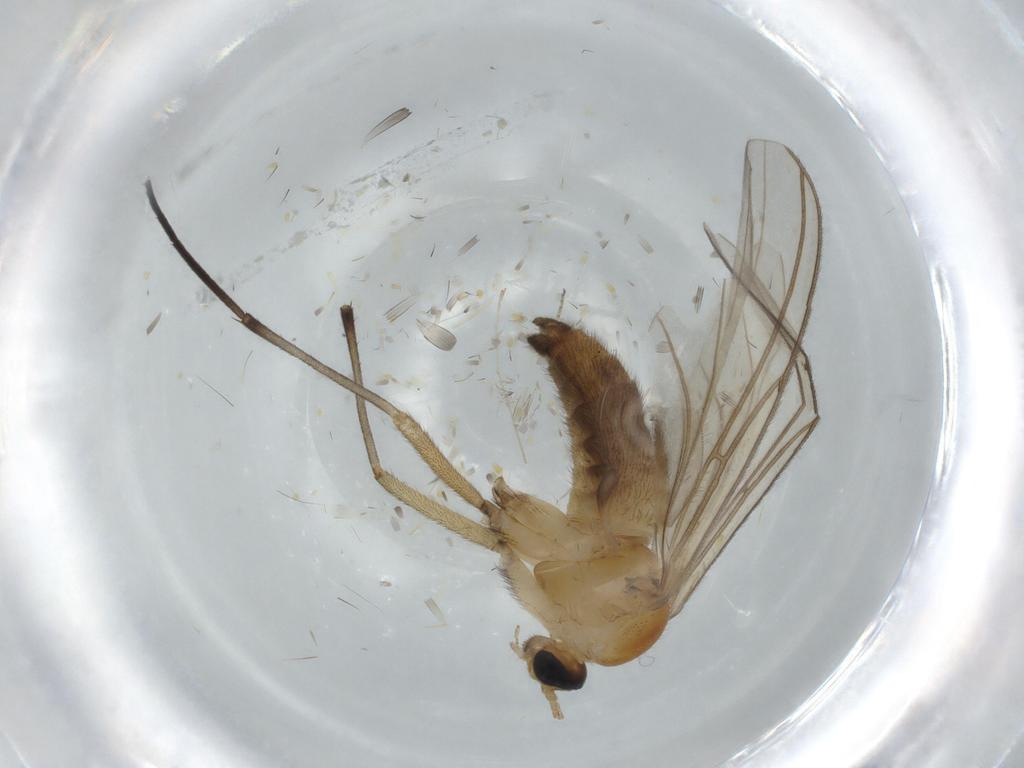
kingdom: Animalia
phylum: Arthropoda
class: Insecta
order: Diptera
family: Sciaridae
